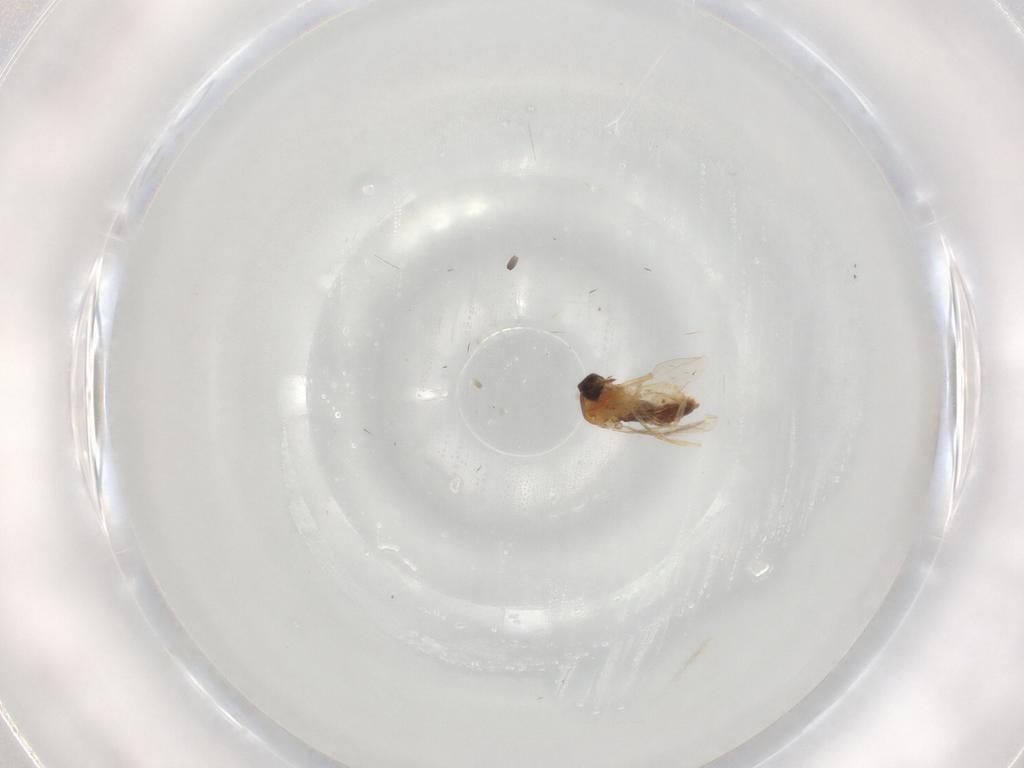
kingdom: Animalia
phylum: Arthropoda
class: Insecta
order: Diptera
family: Ceratopogonidae
